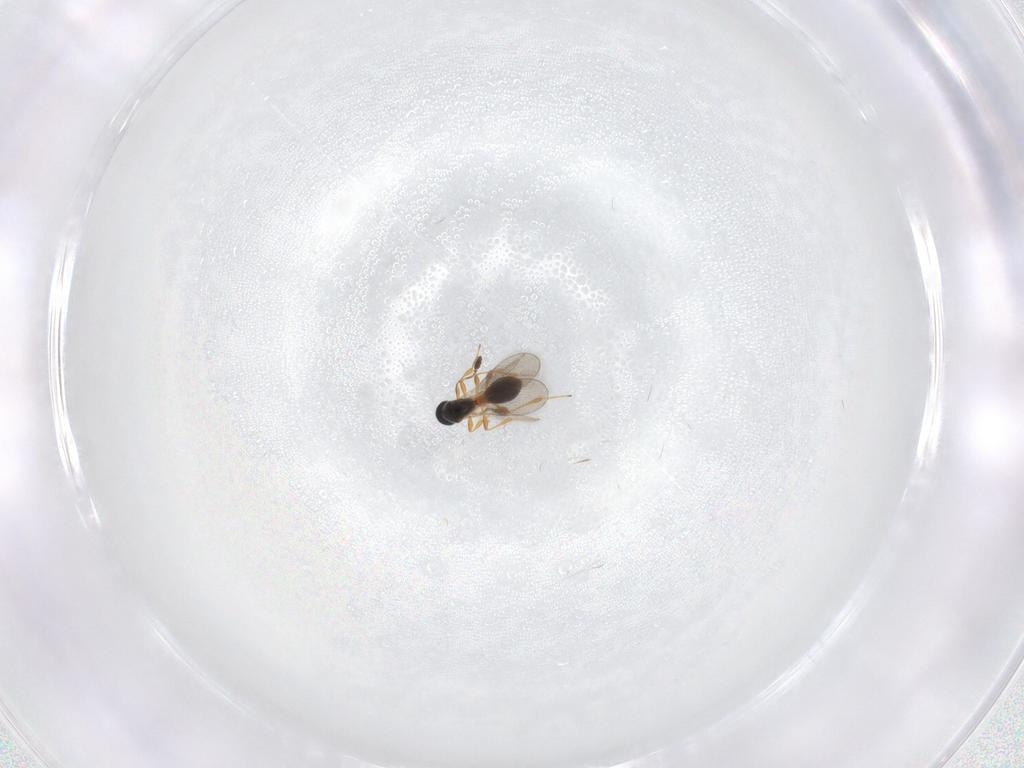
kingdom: Animalia
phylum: Arthropoda
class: Insecta
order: Hymenoptera
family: Platygastridae
